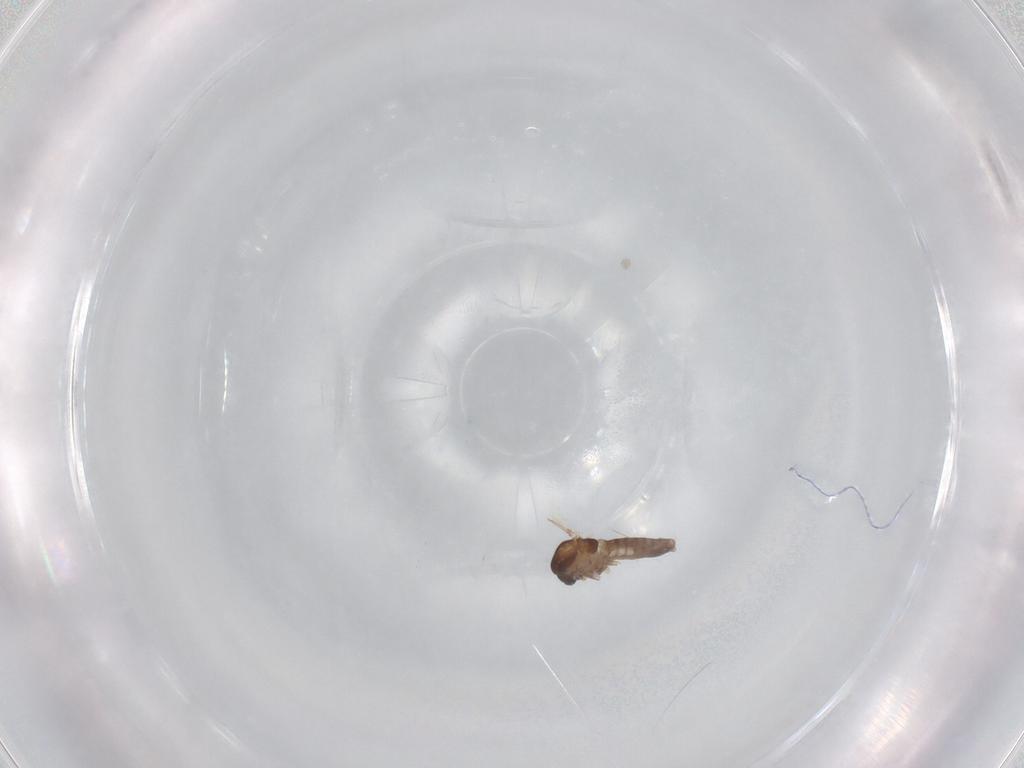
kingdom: Animalia
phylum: Arthropoda
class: Insecta
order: Diptera
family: Chironomidae
